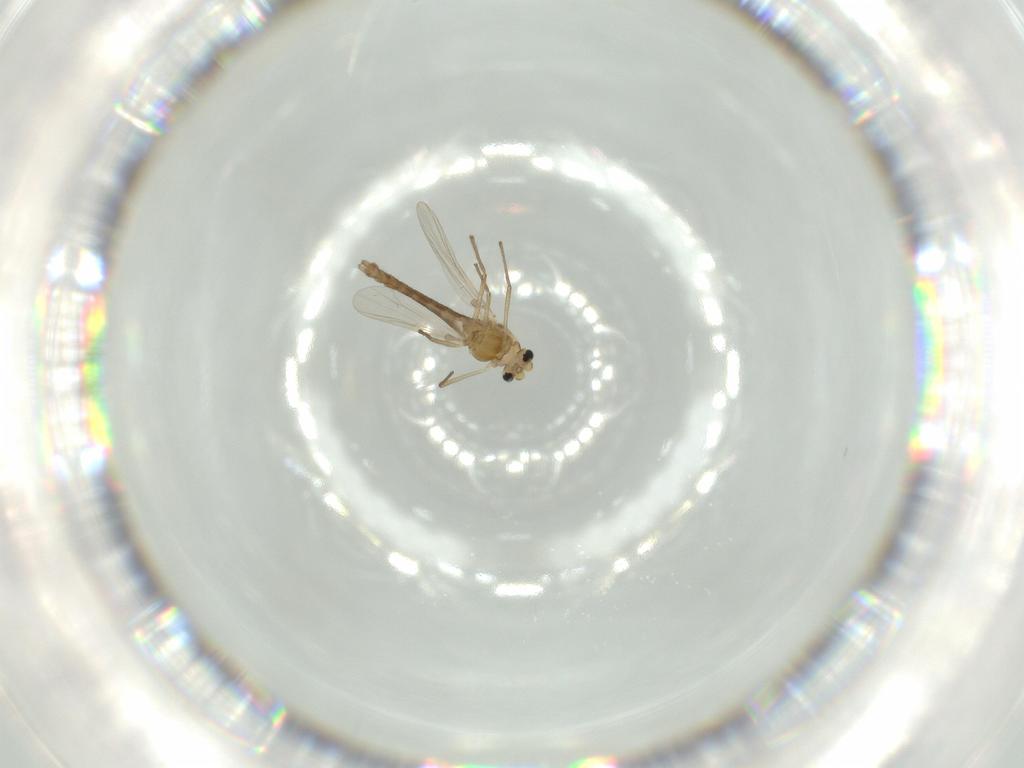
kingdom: Animalia
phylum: Arthropoda
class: Insecta
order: Diptera
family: Chironomidae
